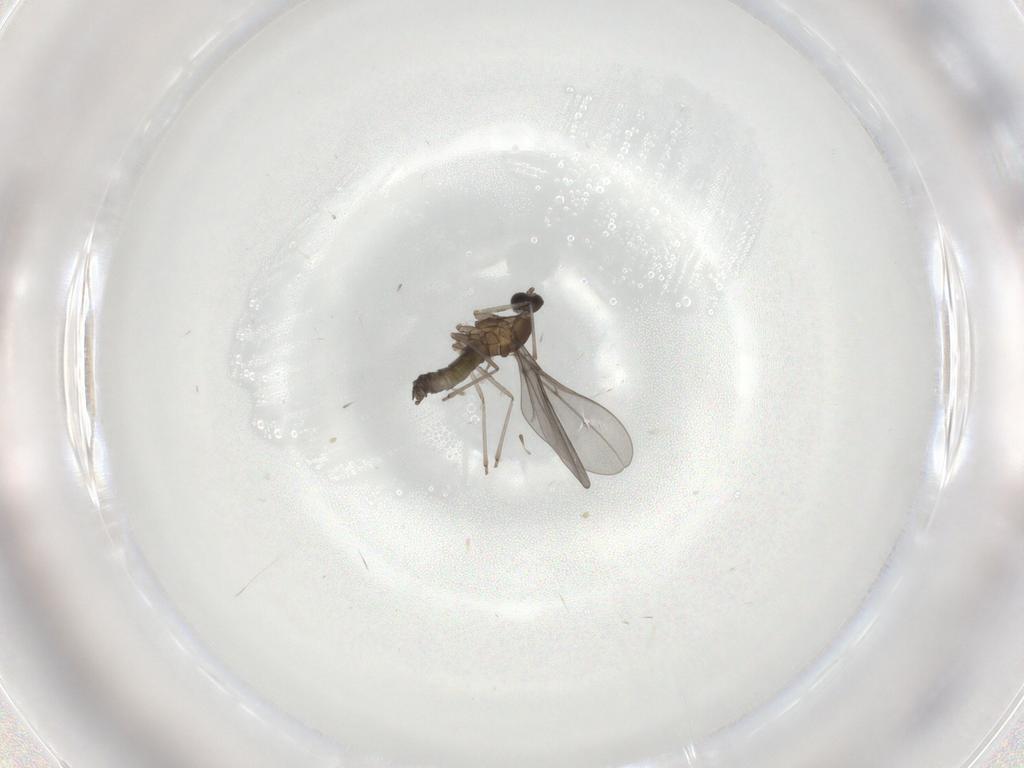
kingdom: Animalia
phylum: Arthropoda
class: Insecta
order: Diptera
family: Cecidomyiidae
